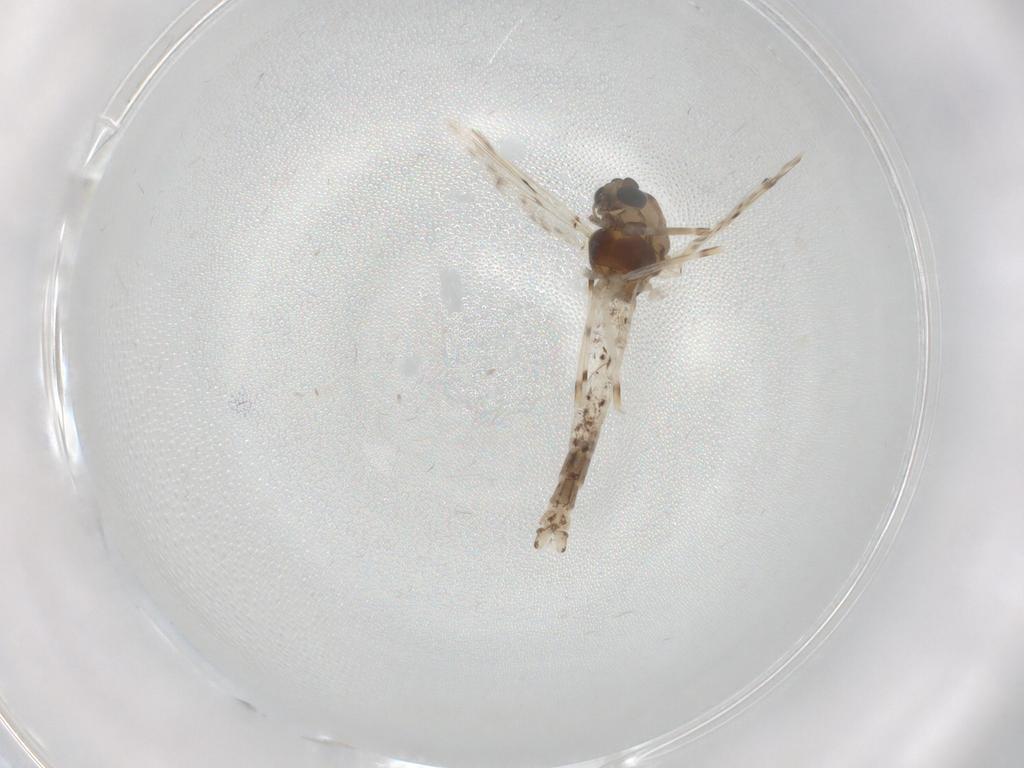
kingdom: Animalia
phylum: Arthropoda
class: Insecta
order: Diptera
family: Chironomidae
